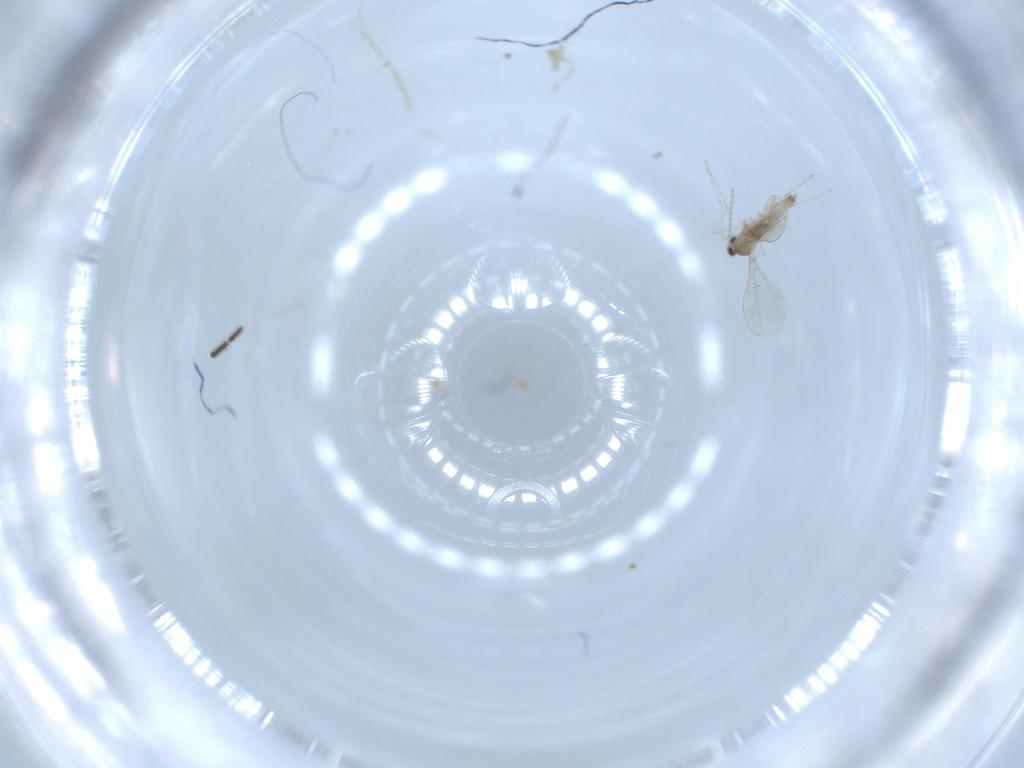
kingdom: Animalia
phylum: Arthropoda
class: Insecta
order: Diptera
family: Cecidomyiidae
